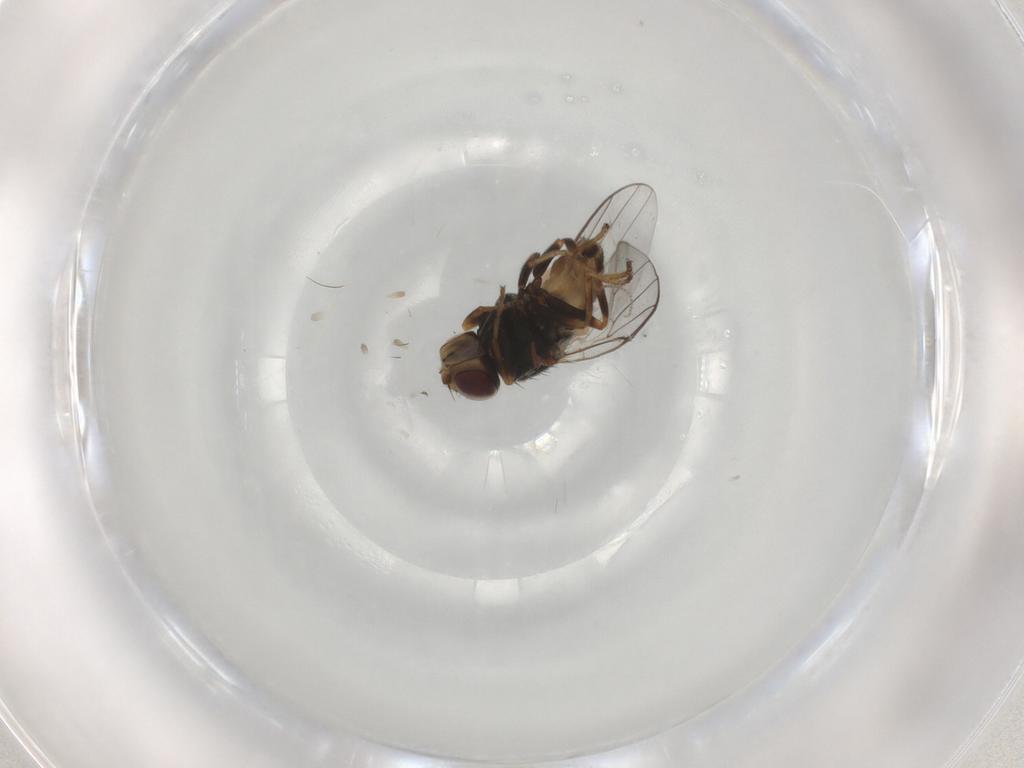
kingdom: Animalia
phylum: Arthropoda
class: Insecta
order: Diptera
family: Chloropidae
